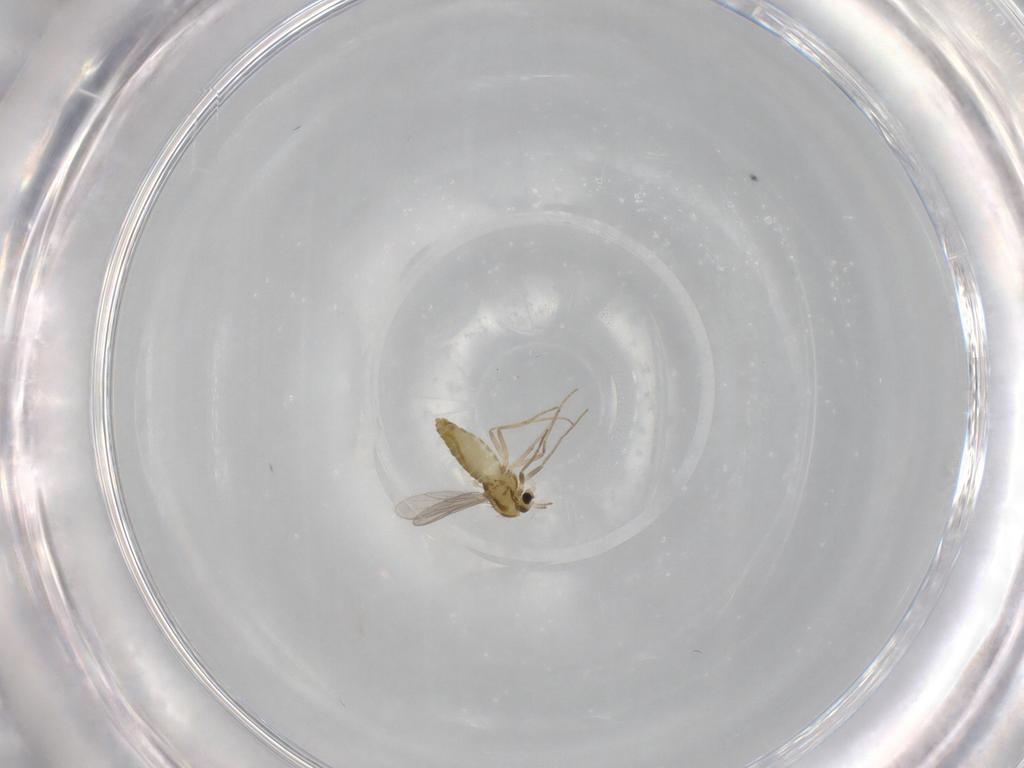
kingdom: Animalia
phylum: Arthropoda
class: Insecta
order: Diptera
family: Chironomidae
